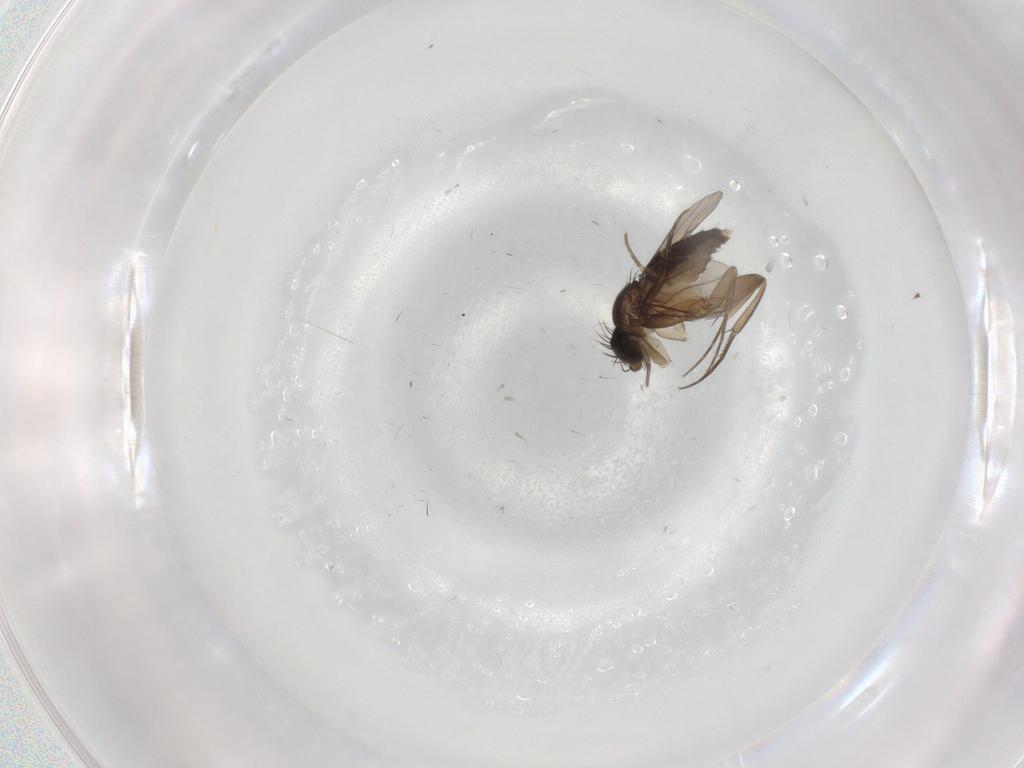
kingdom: Animalia
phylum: Arthropoda
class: Insecta
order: Diptera
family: Phoridae
